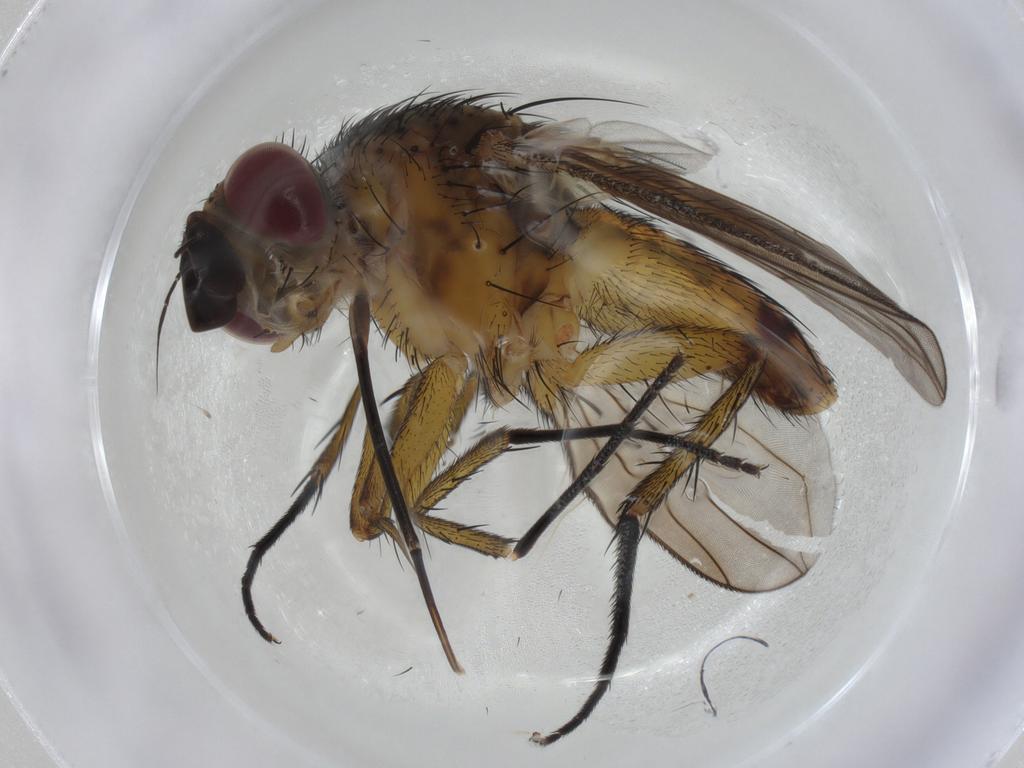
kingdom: Animalia
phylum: Arthropoda
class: Insecta
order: Diptera
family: Tachinidae
